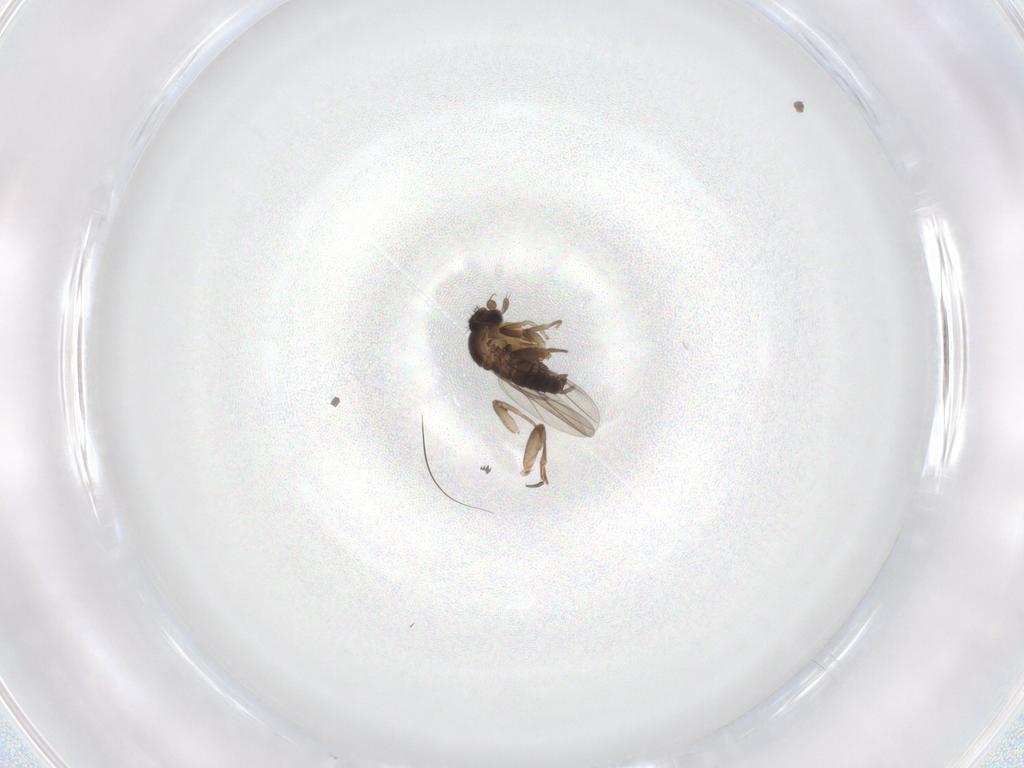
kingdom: Animalia
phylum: Arthropoda
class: Insecta
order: Diptera
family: Phoridae
